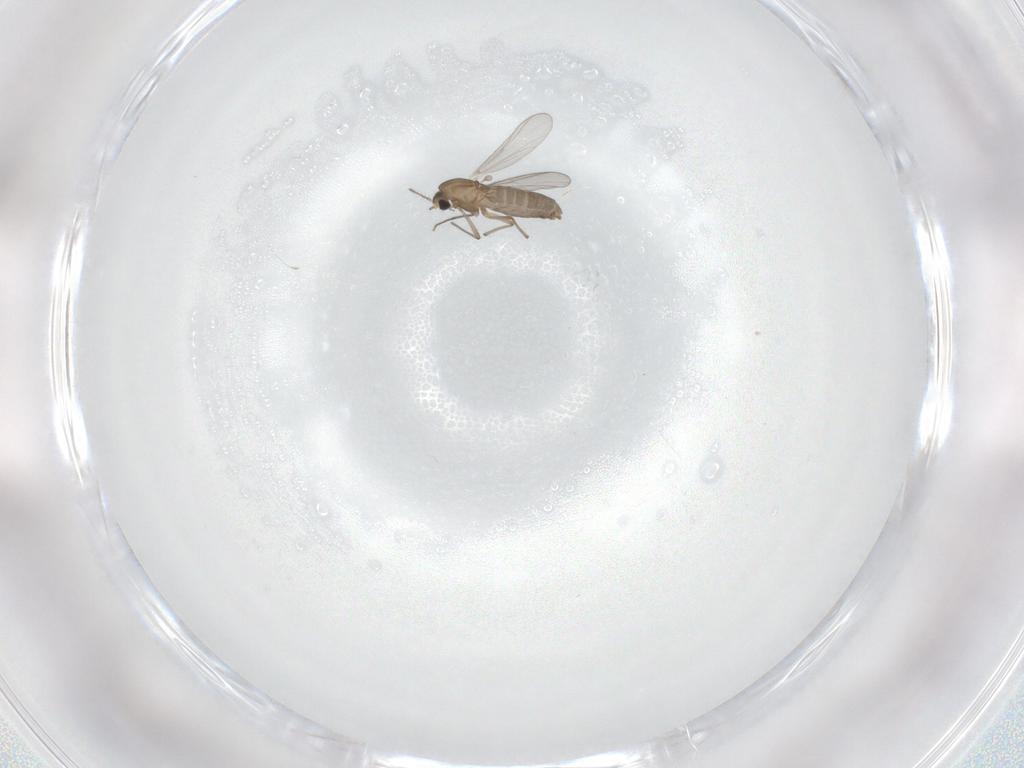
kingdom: Animalia
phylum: Arthropoda
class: Insecta
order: Diptera
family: Chironomidae
